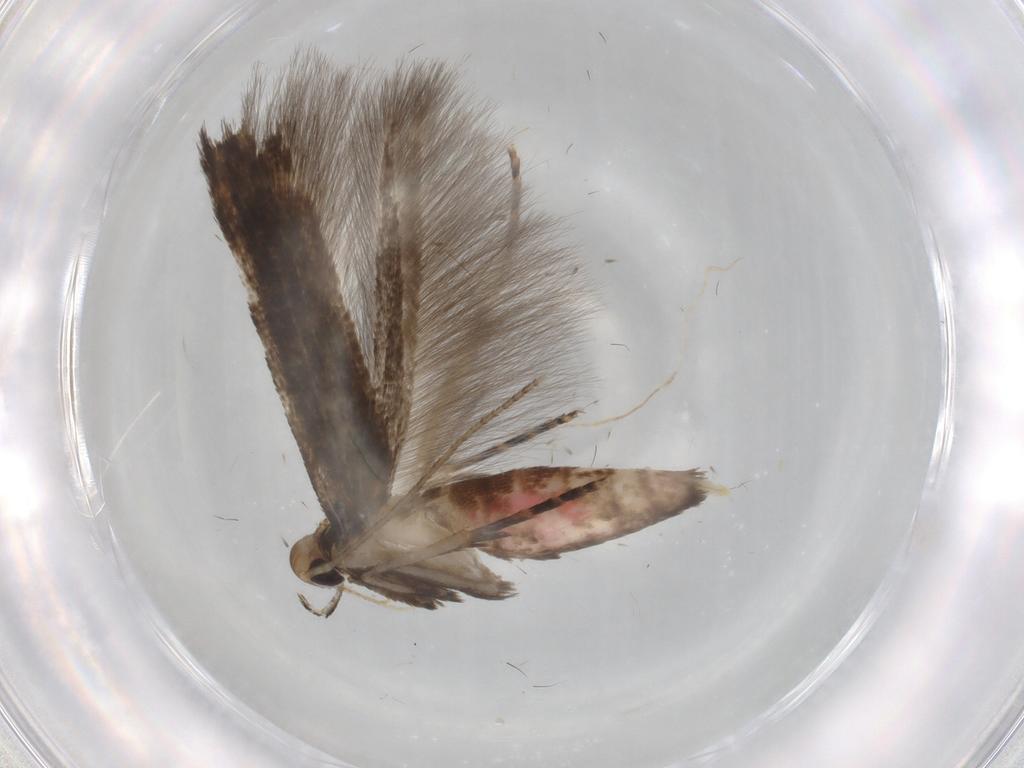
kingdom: Animalia
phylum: Arthropoda
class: Insecta
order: Lepidoptera
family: Cosmopterigidae
